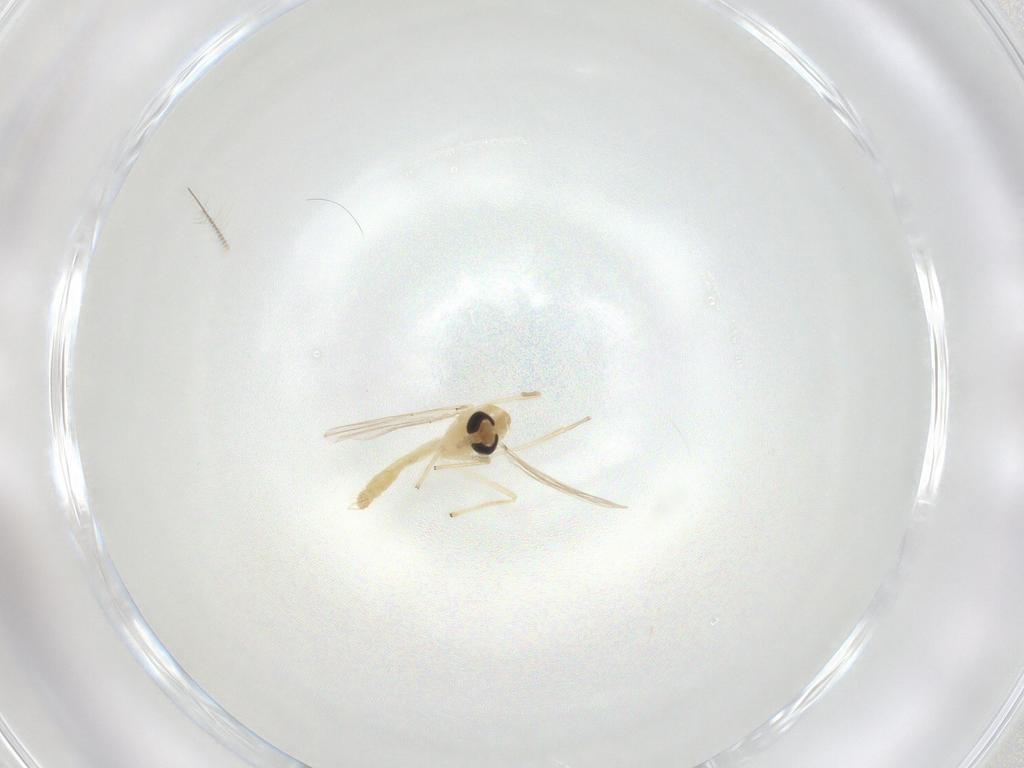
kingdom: Animalia
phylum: Arthropoda
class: Insecta
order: Diptera
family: Chironomidae
